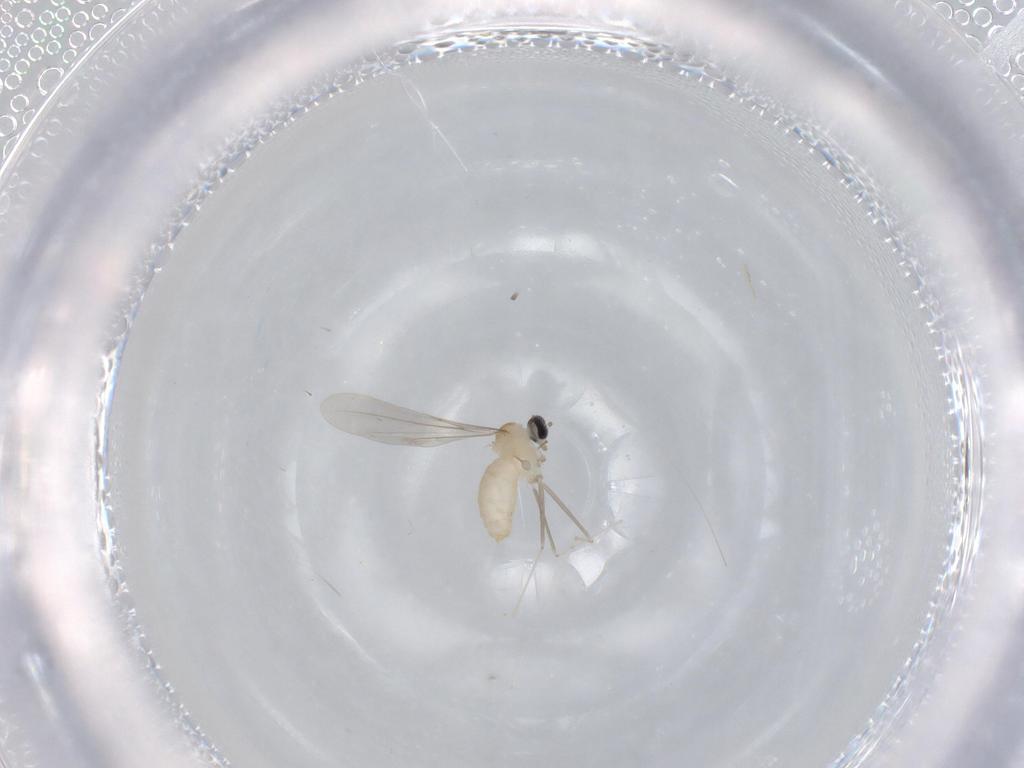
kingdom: Animalia
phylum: Arthropoda
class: Insecta
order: Diptera
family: Cecidomyiidae
